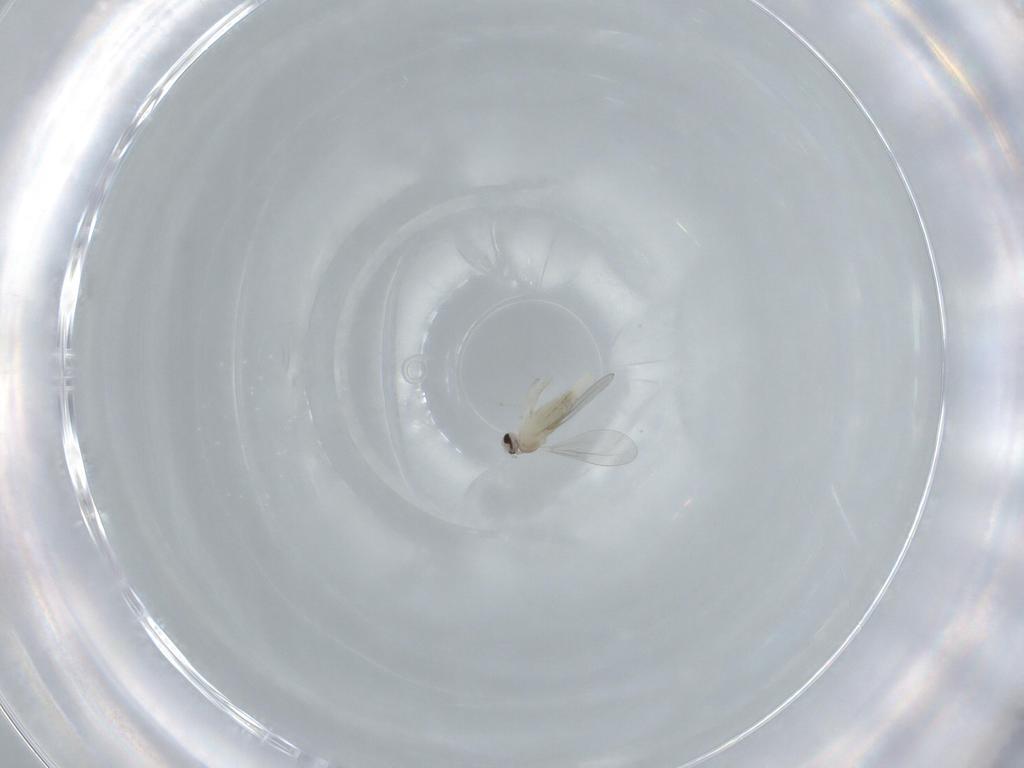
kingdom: Animalia
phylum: Arthropoda
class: Insecta
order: Diptera
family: Cecidomyiidae
